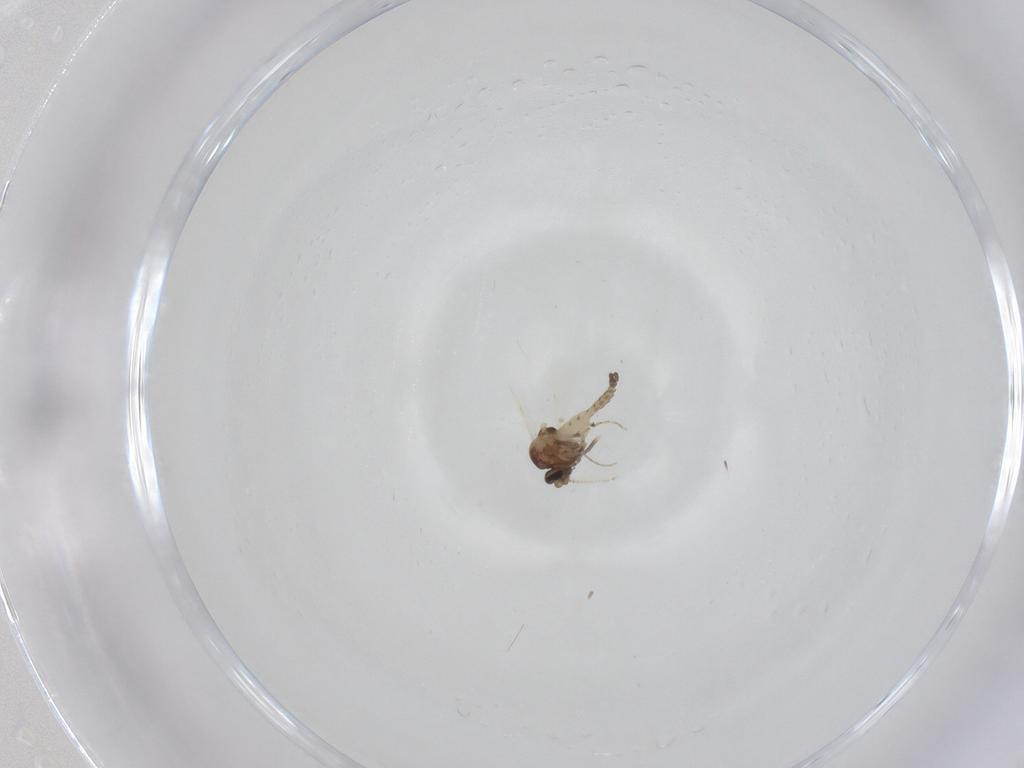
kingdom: Animalia
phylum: Arthropoda
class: Insecta
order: Diptera
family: Ceratopogonidae
